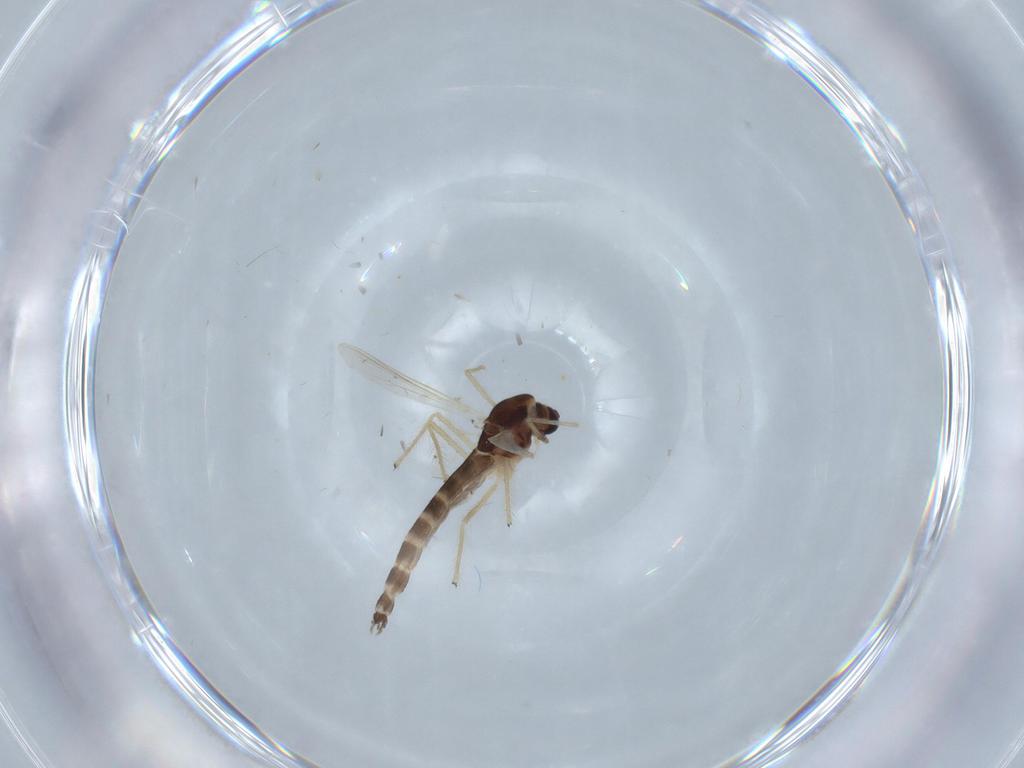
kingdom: Animalia
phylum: Arthropoda
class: Insecta
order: Diptera
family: Chironomidae
